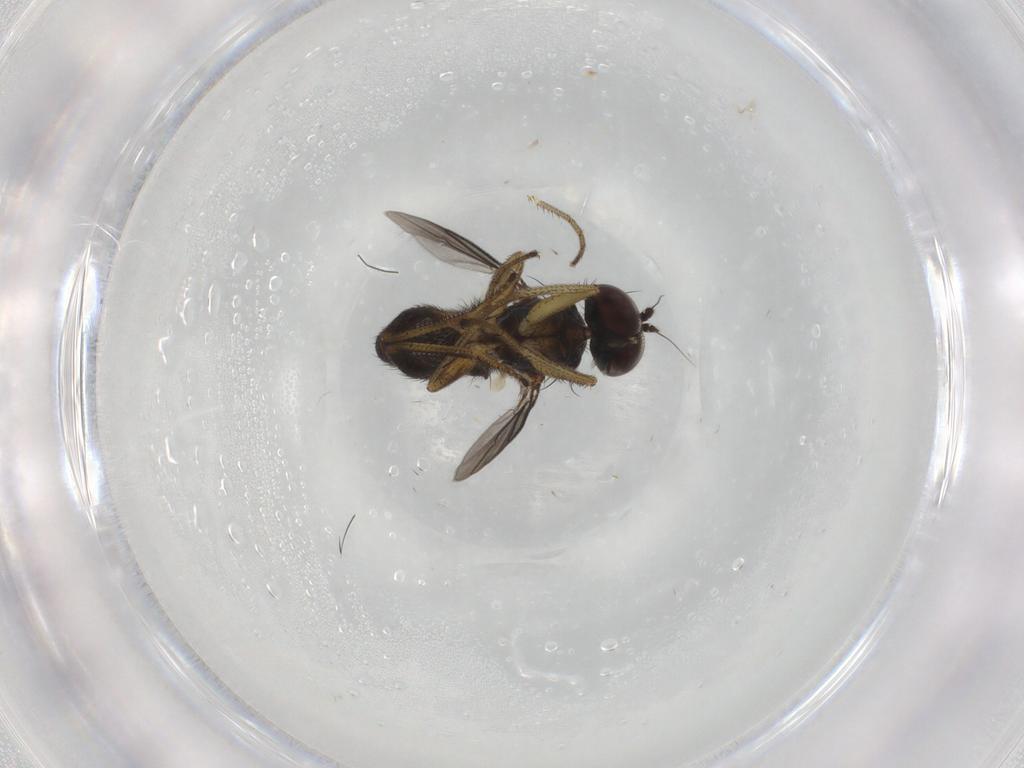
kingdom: Animalia
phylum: Arthropoda
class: Insecta
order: Diptera
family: Dolichopodidae
